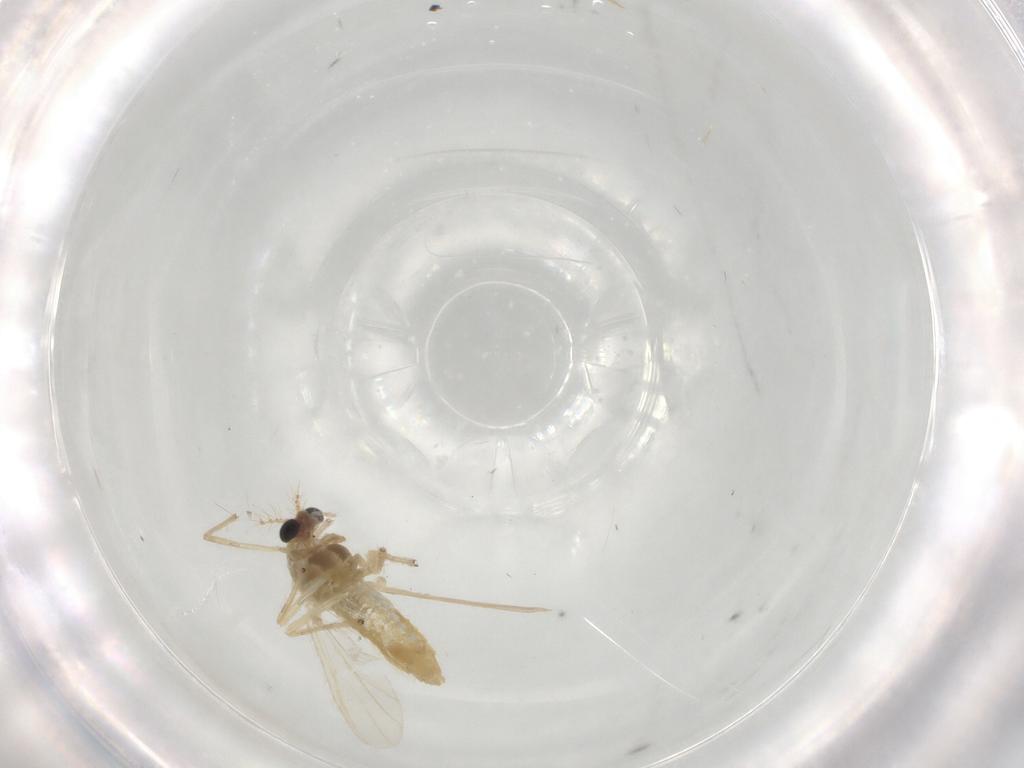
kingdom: Animalia
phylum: Arthropoda
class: Insecta
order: Diptera
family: Chironomidae
